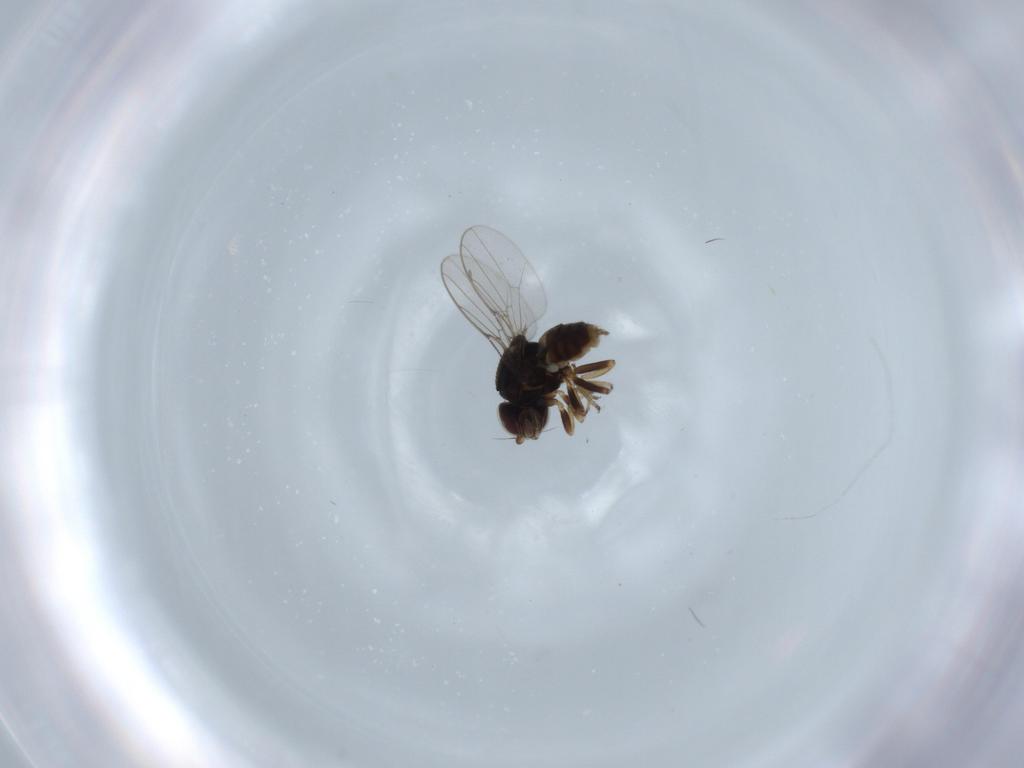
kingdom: Animalia
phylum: Arthropoda
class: Insecta
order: Diptera
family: Chloropidae
